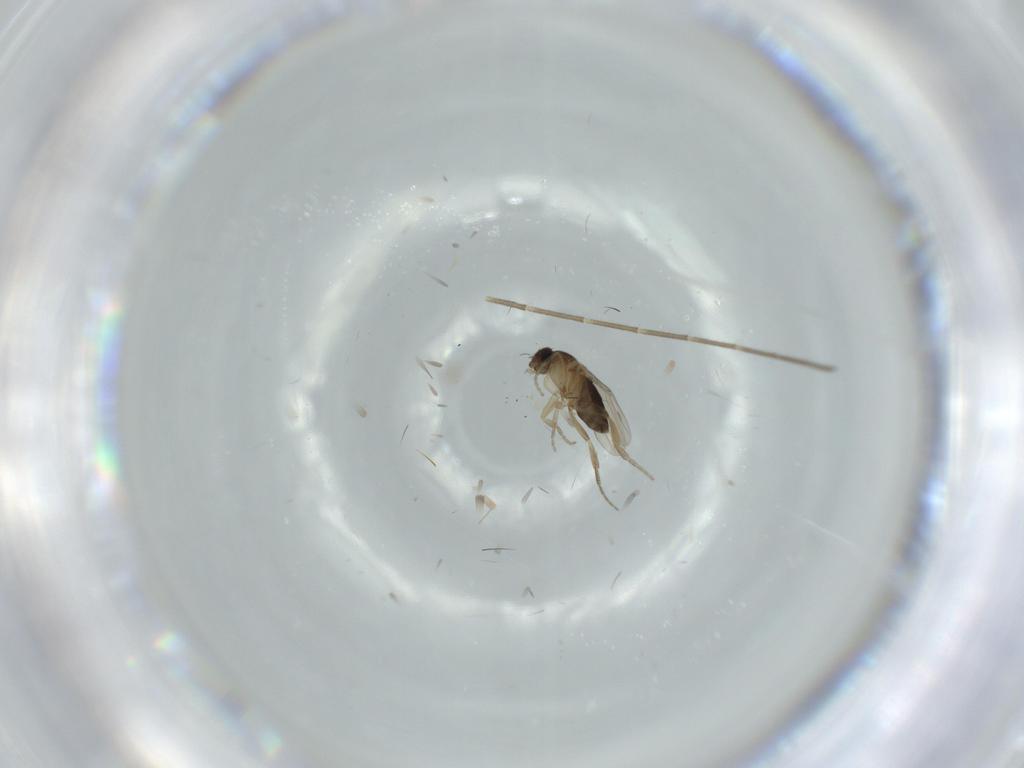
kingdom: Animalia
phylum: Arthropoda
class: Insecta
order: Diptera
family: Phoridae
